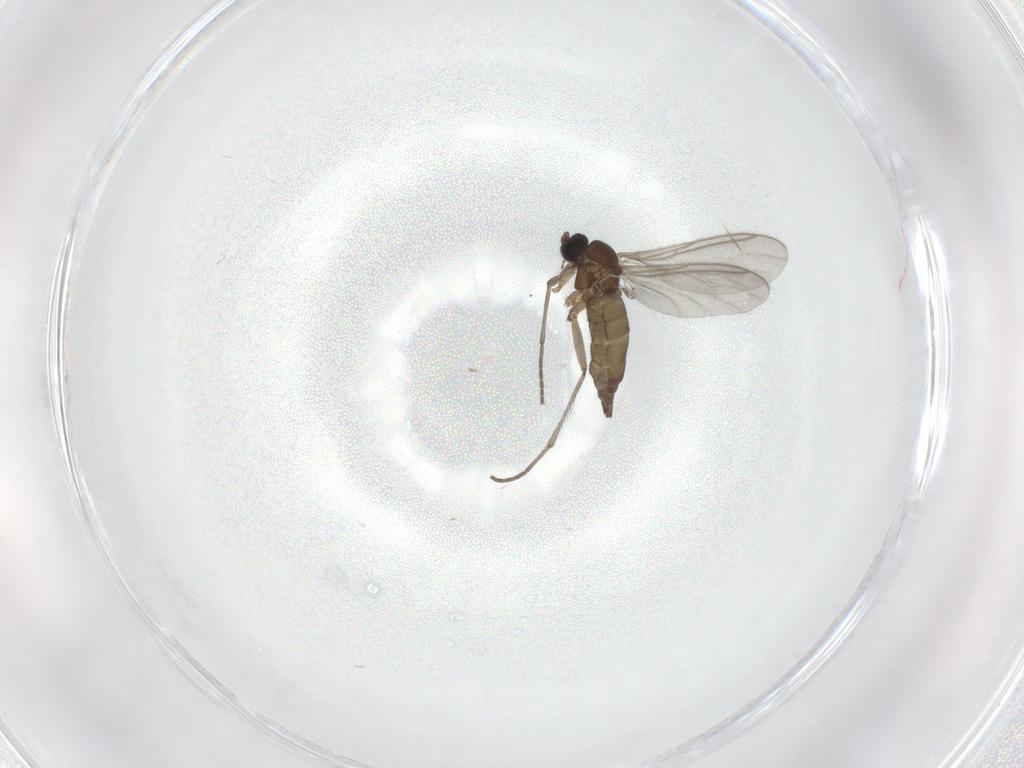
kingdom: Animalia
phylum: Arthropoda
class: Insecta
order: Diptera
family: Sciaridae
